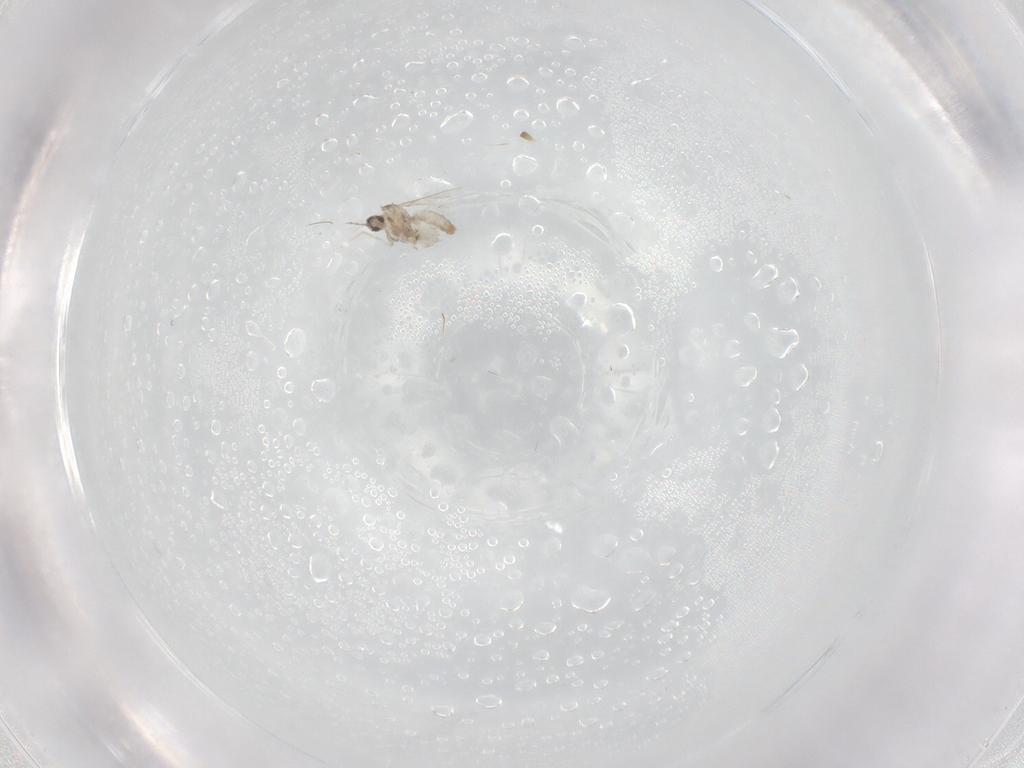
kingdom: Animalia
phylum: Arthropoda
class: Insecta
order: Diptera
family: Cecidomyiidae
